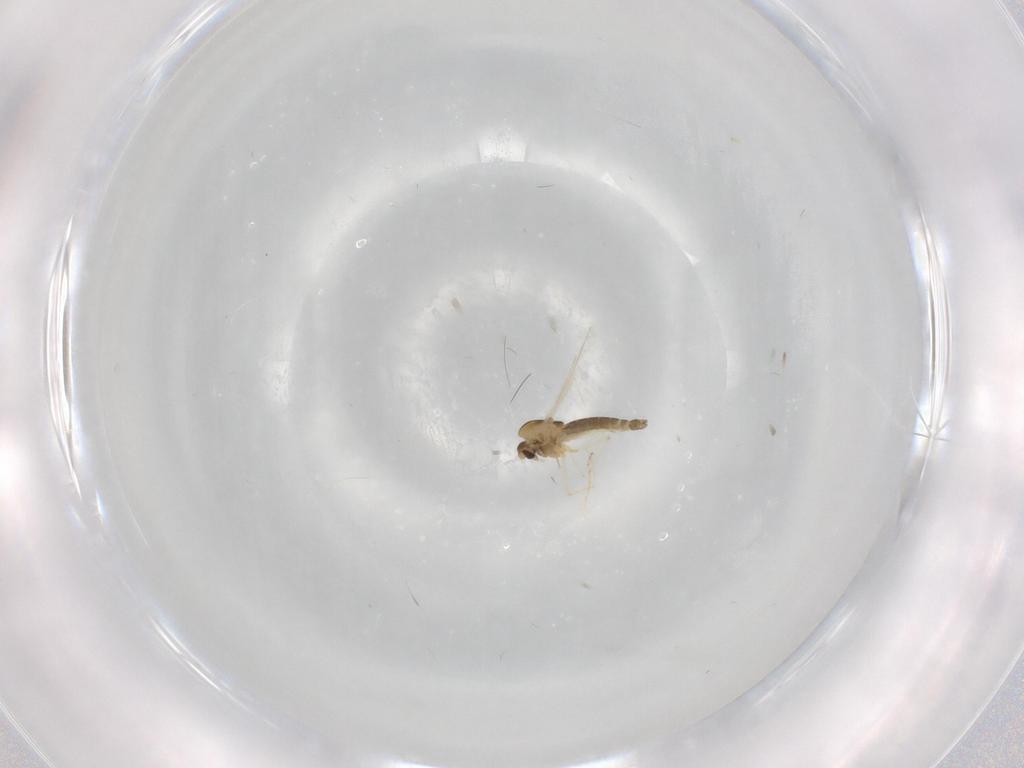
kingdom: Animalia
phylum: Arthropoda
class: Insecta
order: Diptera
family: Chironomidae
